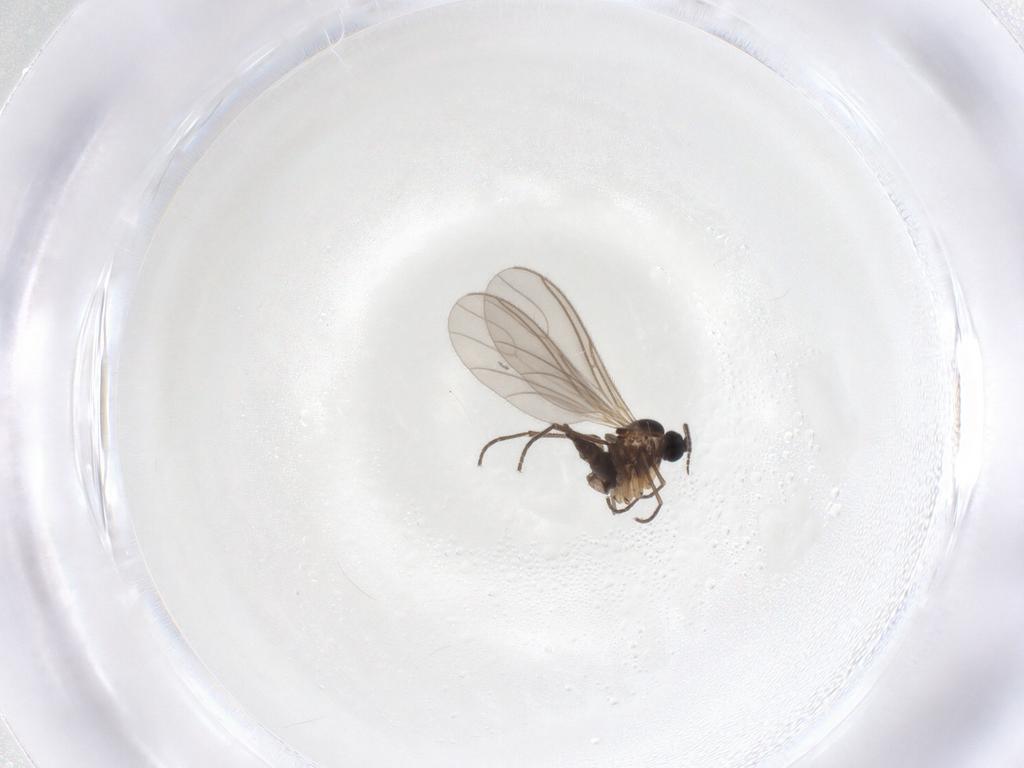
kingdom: Animalia
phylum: Arthropoda
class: Insecta
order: Diptera
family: Sciaridae
